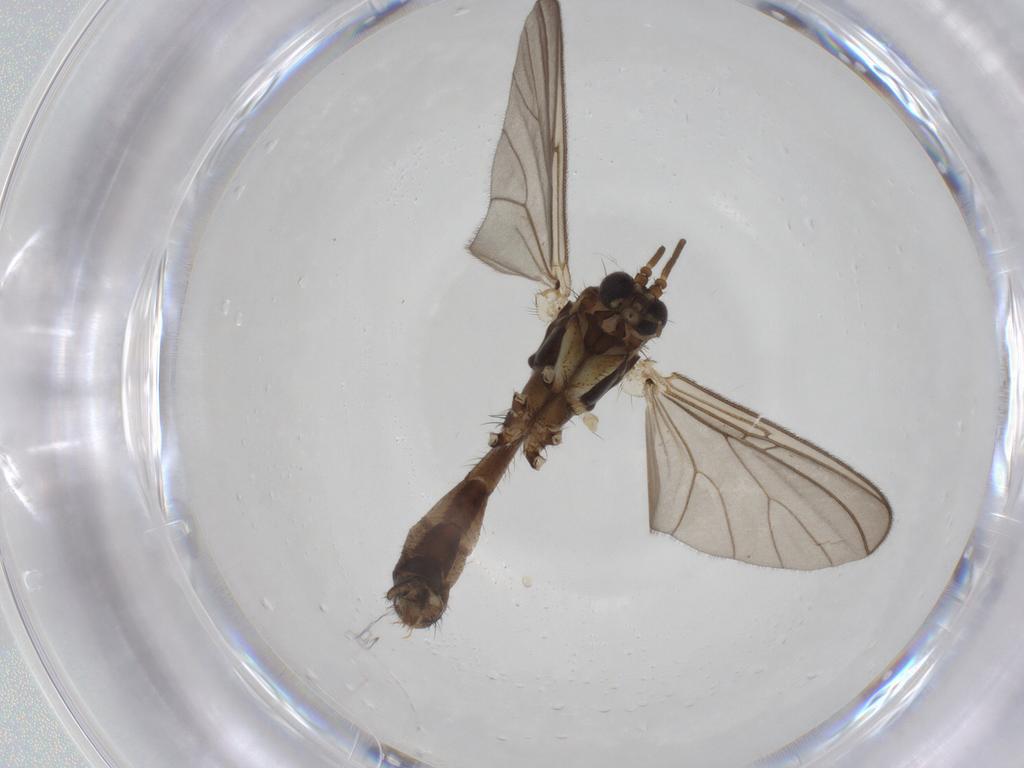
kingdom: Animalia
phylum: Arthropoda
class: Insecta
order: Diptera
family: Mycetophilidae
